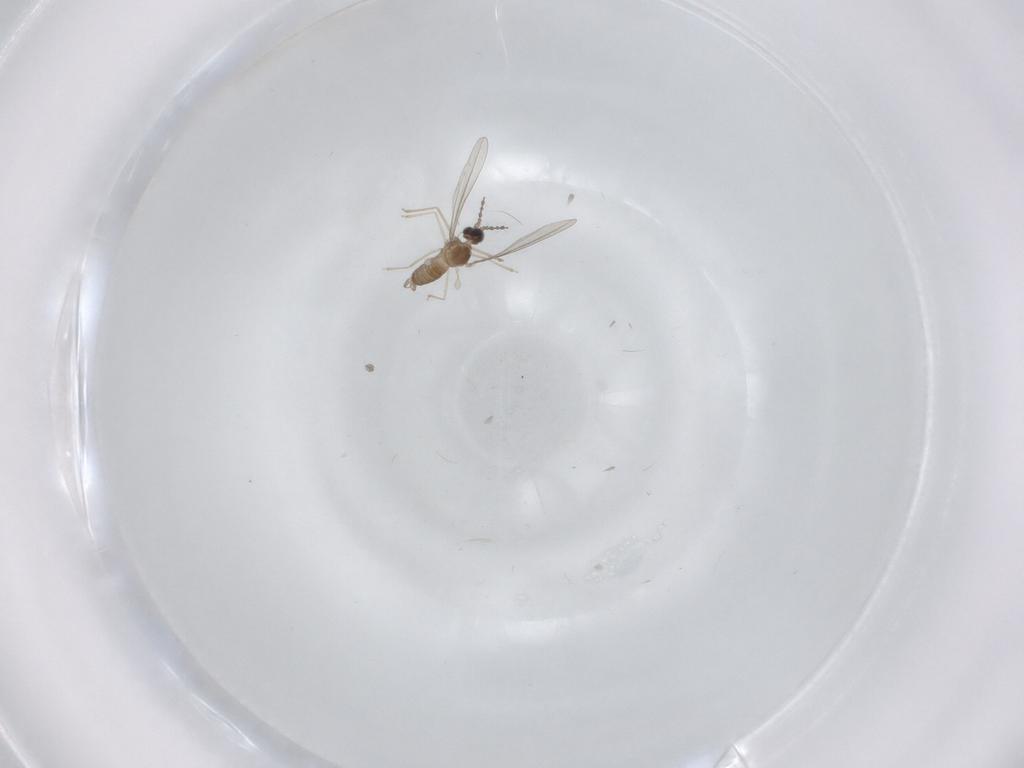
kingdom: Animalia
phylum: Arthropoda
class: Insecta
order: Diptera
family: Cecidomyiidae
